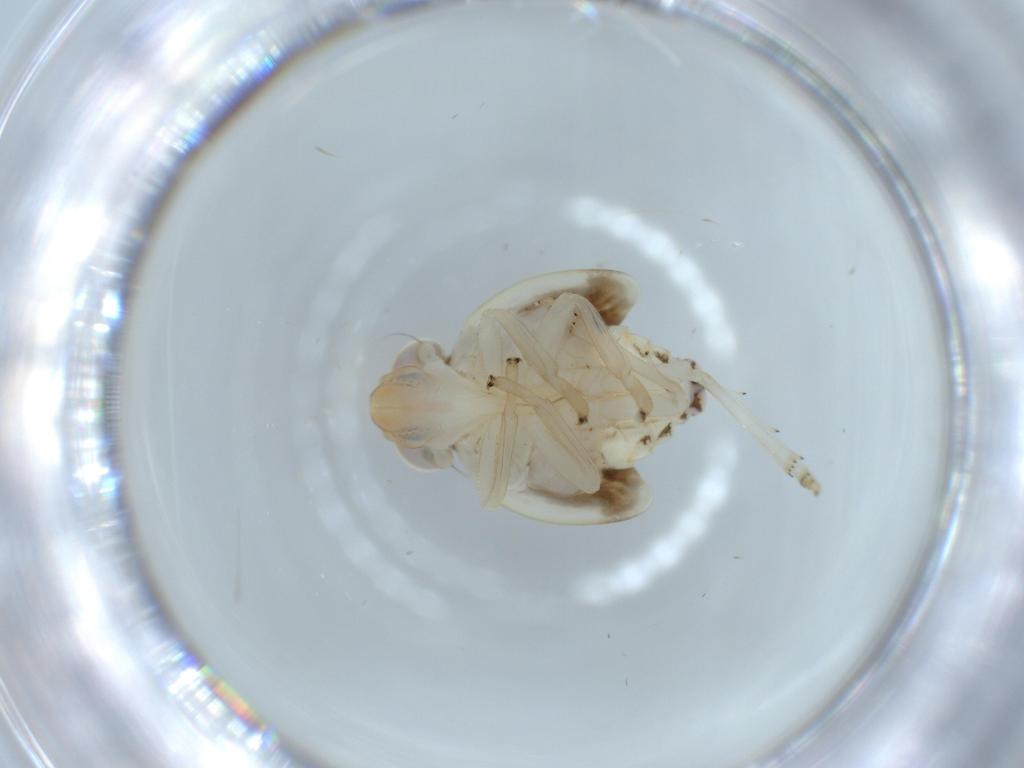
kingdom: Animalia
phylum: Arthropoda
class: Insecta
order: Hemiptera
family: Nogodinidae
